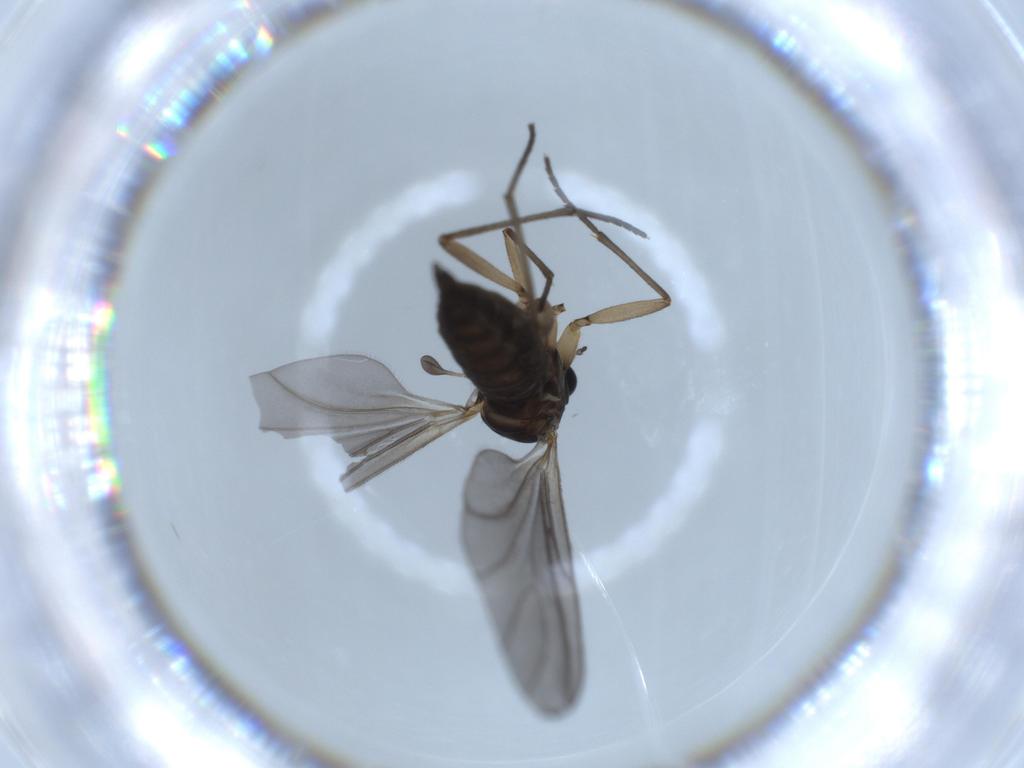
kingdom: Animalia
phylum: Arthropoda
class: Insecta
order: Diptera
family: Sciaridae
